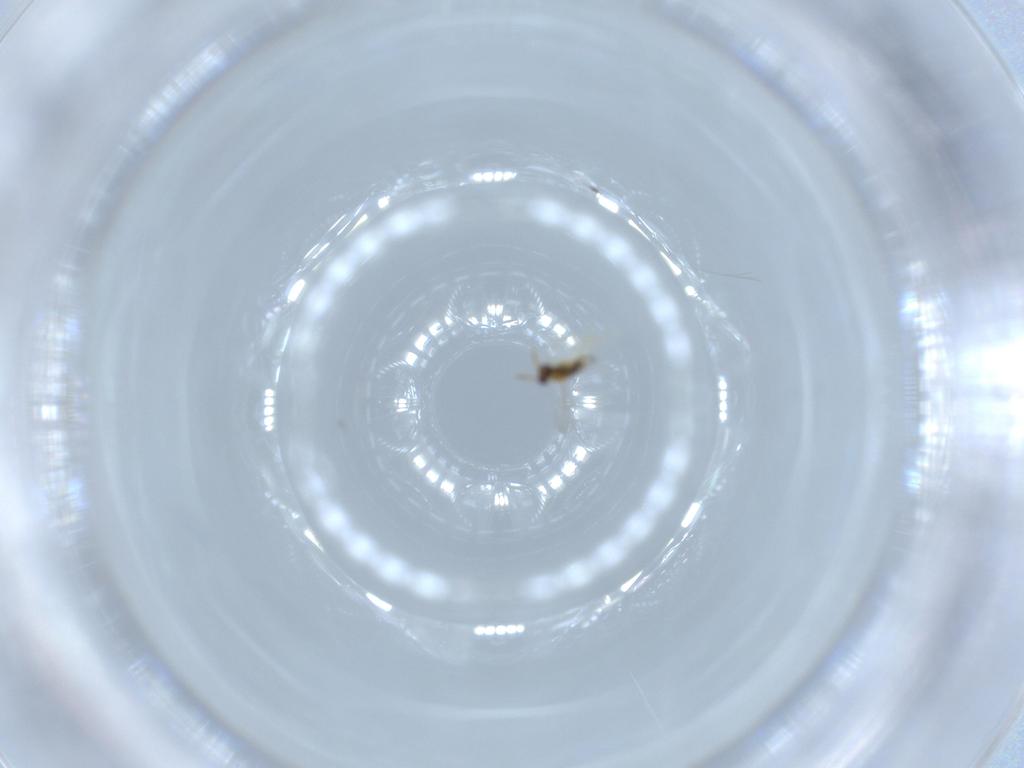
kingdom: Animalia
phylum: Arthropoda
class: Insecta
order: Hymenoptera
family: Aphelinidae
